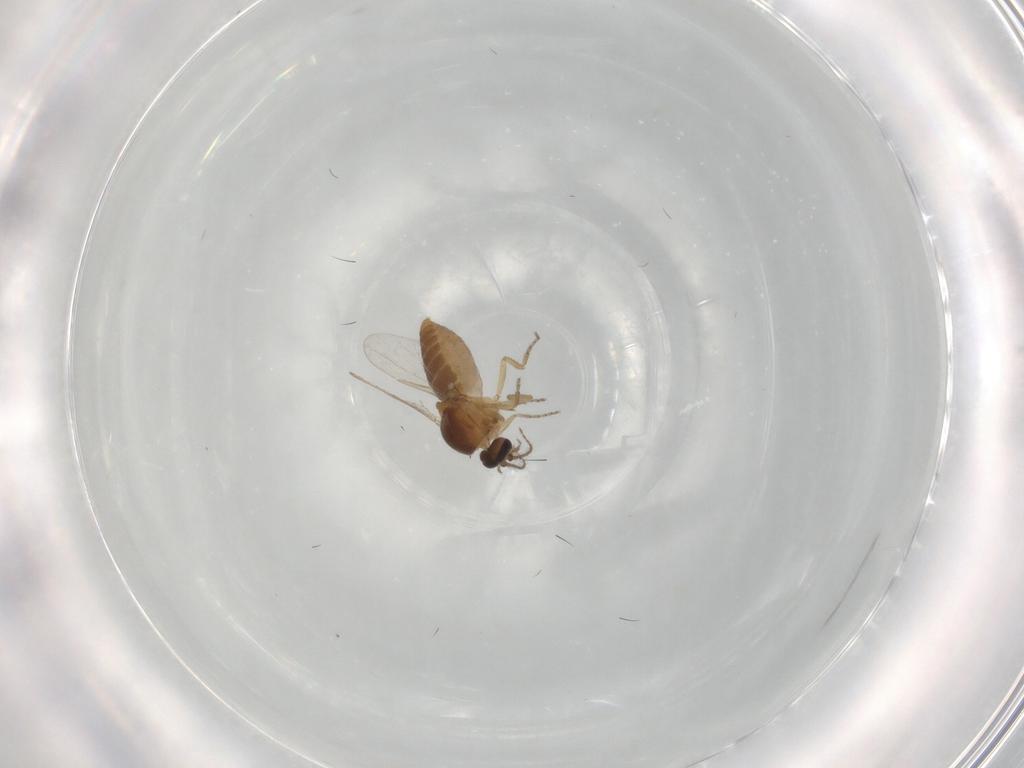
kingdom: Animalia
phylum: Arthropoda
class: Insecta
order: Diptera
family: Ceratopogonidae
